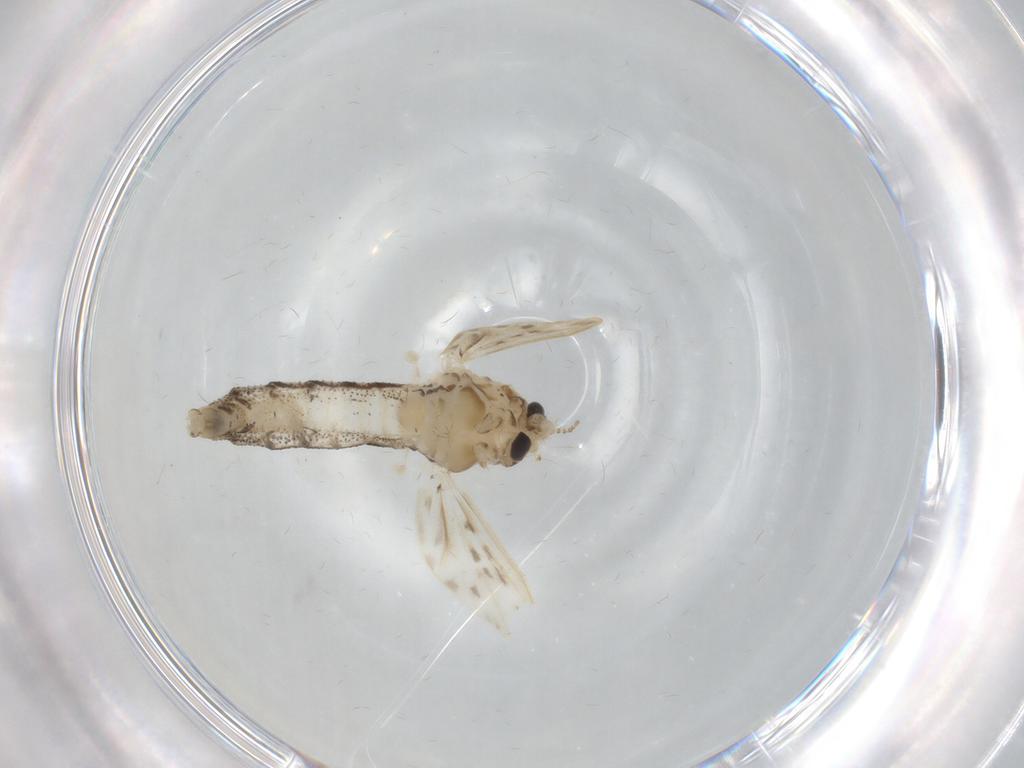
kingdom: Animalia
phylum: Arthropoda
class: Insecta
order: Diptera
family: Chaoboridae
